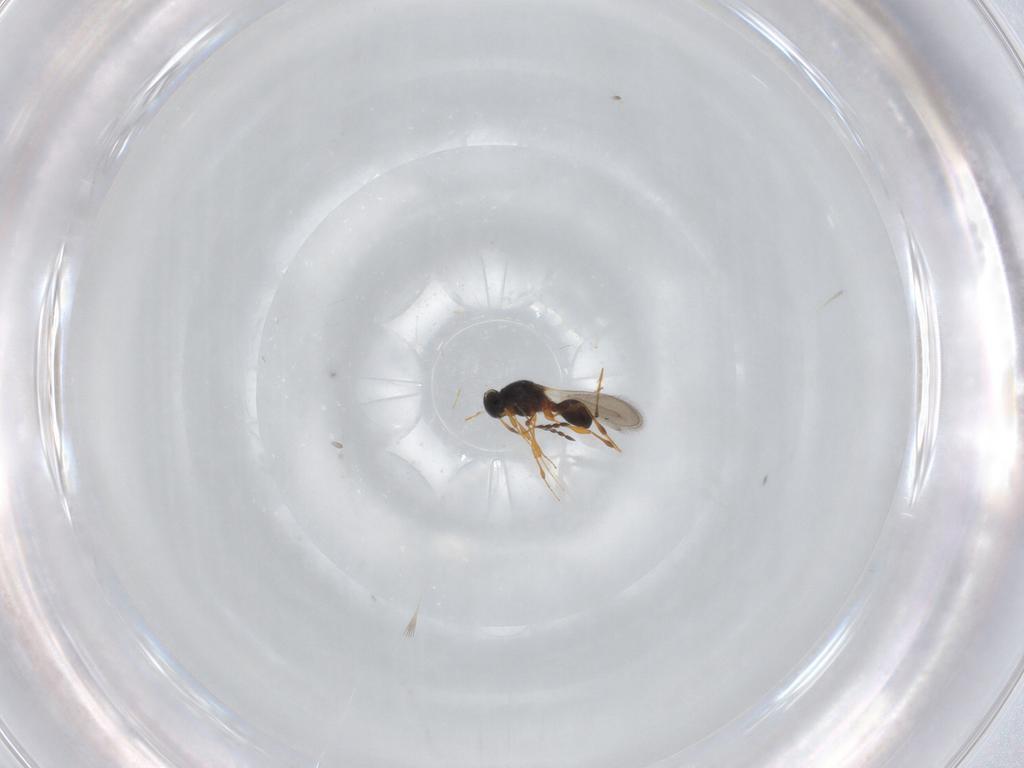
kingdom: Animalia
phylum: Arthropoda
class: Insecta
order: Hymenoptera
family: Platygastridae
